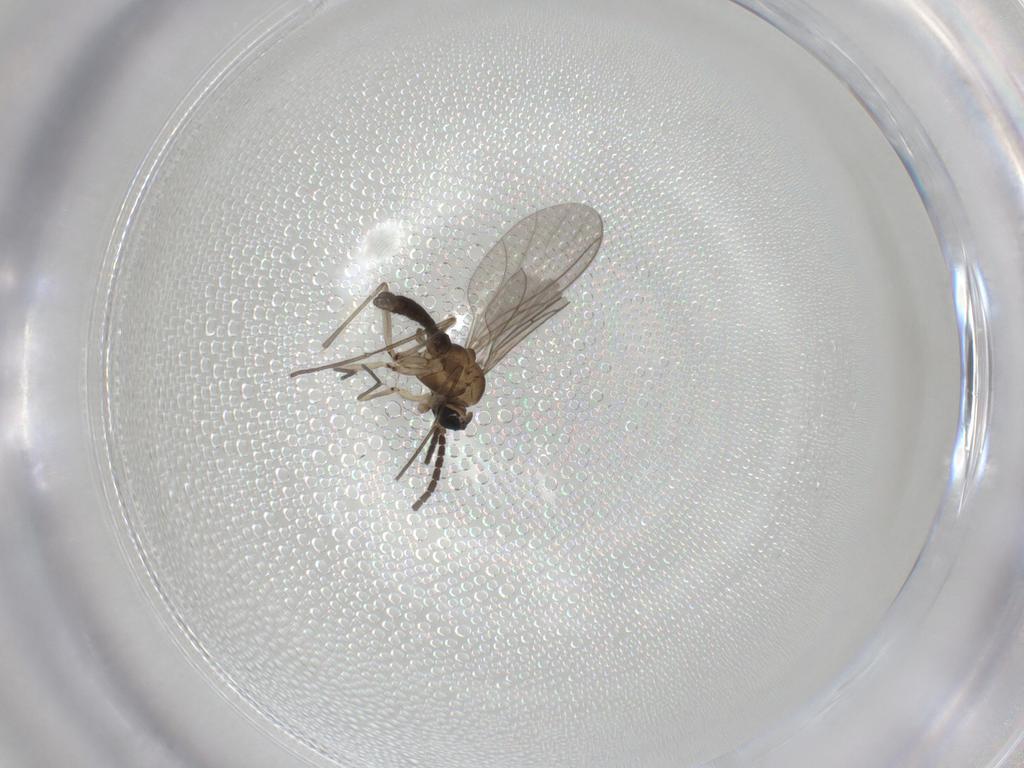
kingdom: Animalia
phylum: Arthropoda
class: Insecta
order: Diptera
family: Sciaridae
